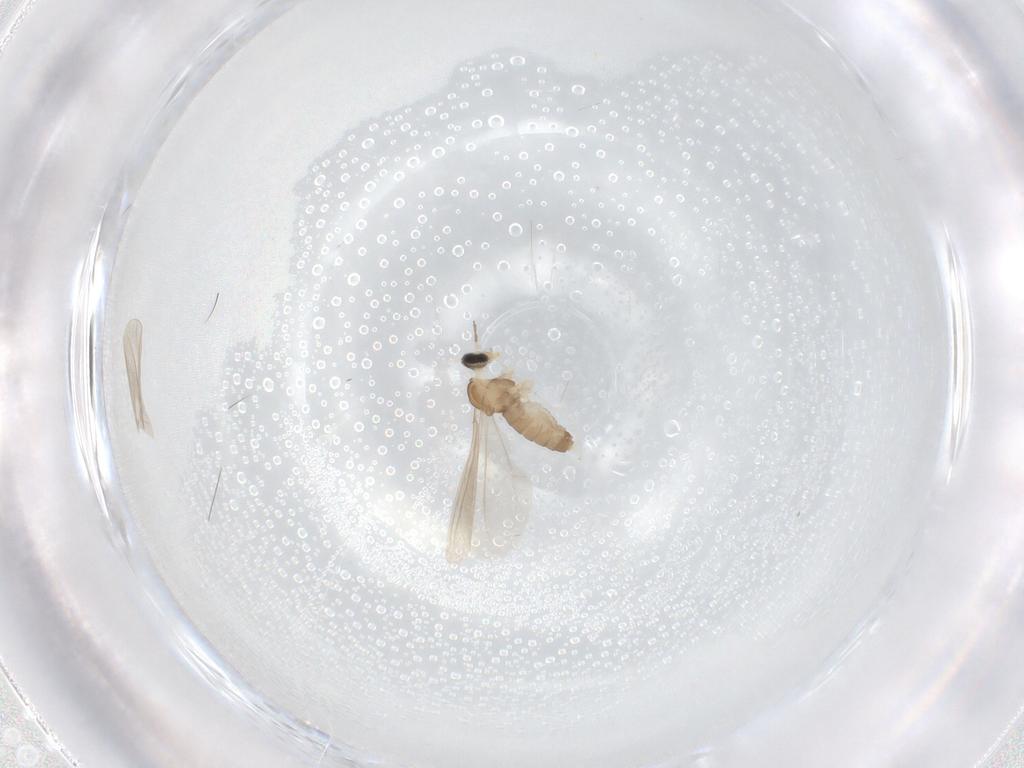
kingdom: Animalia
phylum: Arthropoda
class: Insecta
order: Diptera
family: Cecidomyiidae
